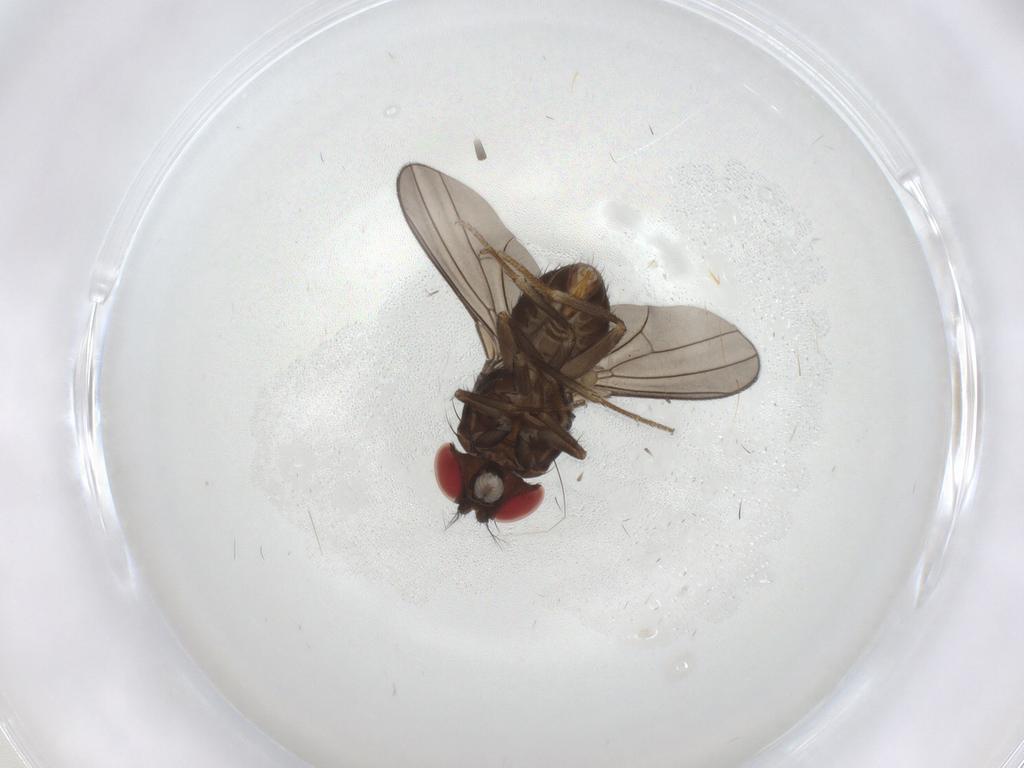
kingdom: Animalia
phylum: Arthropoda
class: Insecta
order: Diptera
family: Drosophilidae
